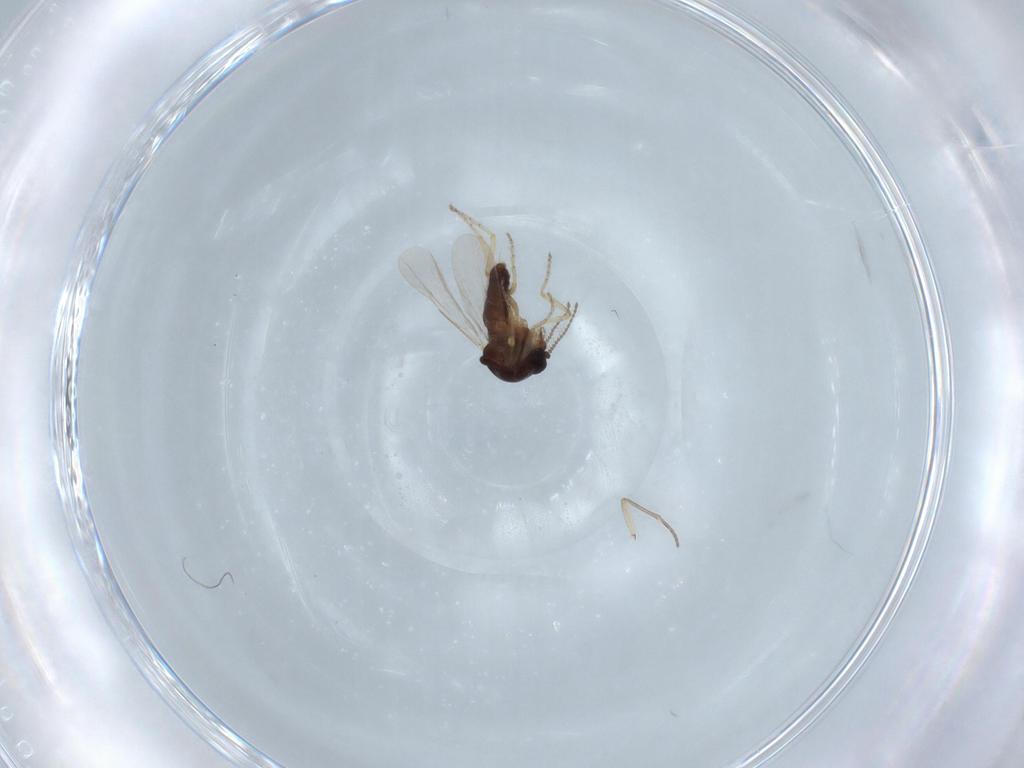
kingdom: Animalia
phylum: Arthropoda
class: Insecta
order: Diptera
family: Ceratopogonidae
